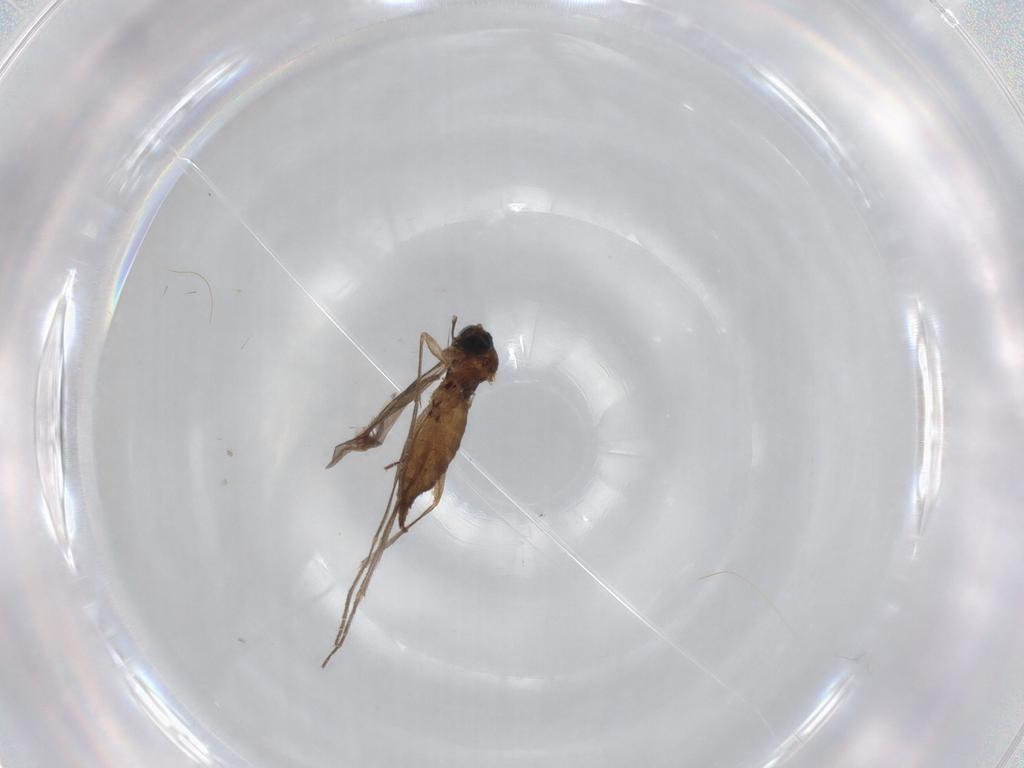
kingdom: Animalia
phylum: Arthropoda
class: Insecta
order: Diptera
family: Sciaridae
